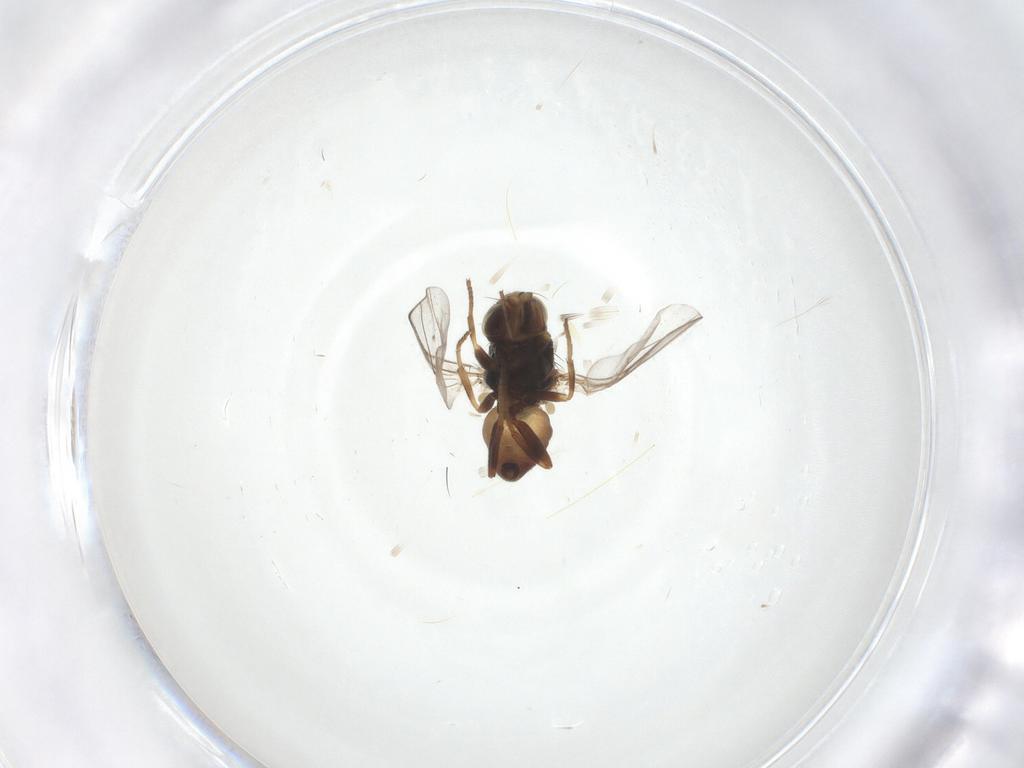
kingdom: Animalia
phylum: Arthropoda
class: Insecta
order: Diptera
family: Chloropidae
